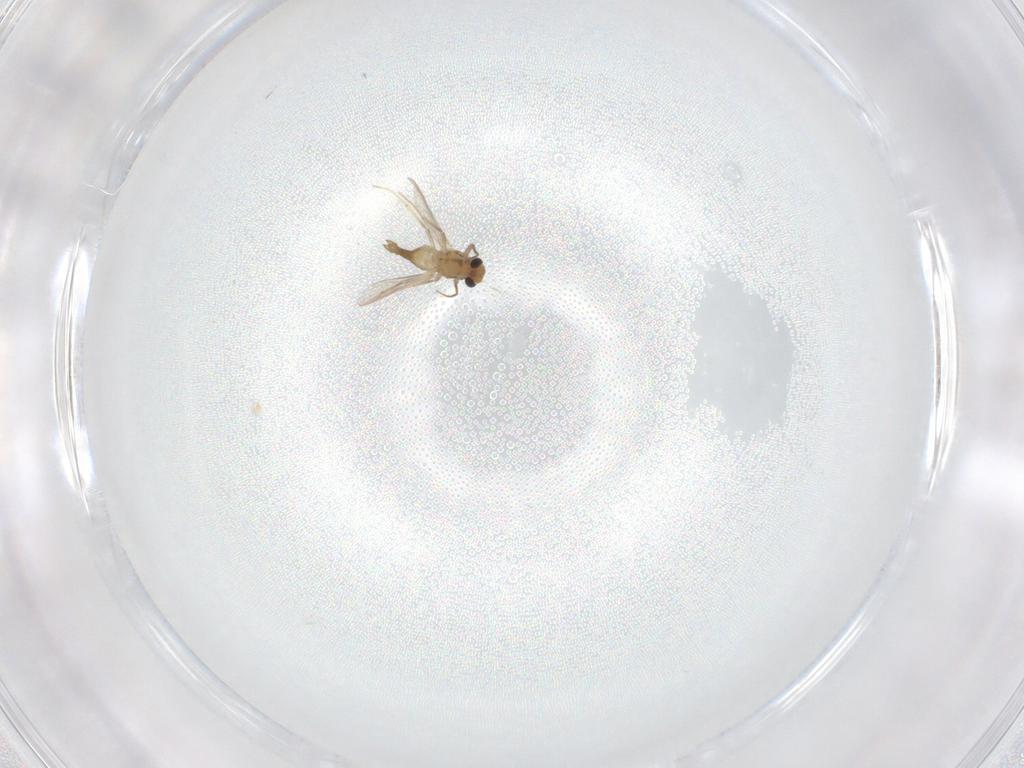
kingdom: Animalia
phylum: Arthropoda
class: Insecta
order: Diptera
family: Chironomidae
